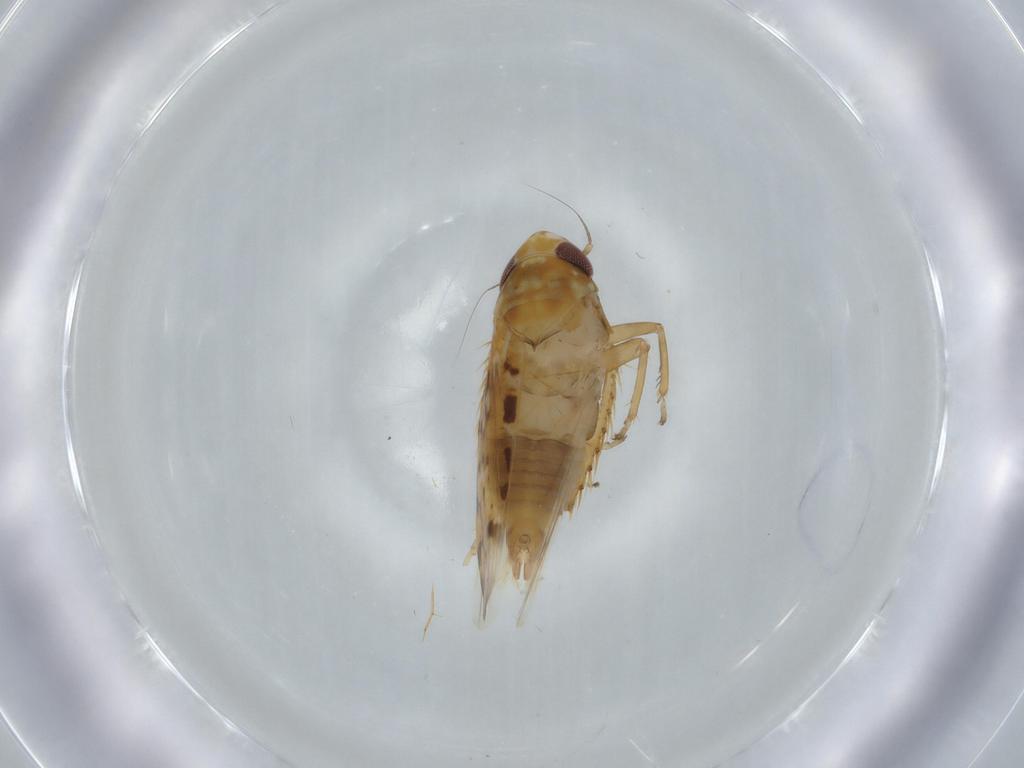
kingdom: Animalia
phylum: Arthropoda
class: Insecta
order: Hemiptera
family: Cicadellidae
